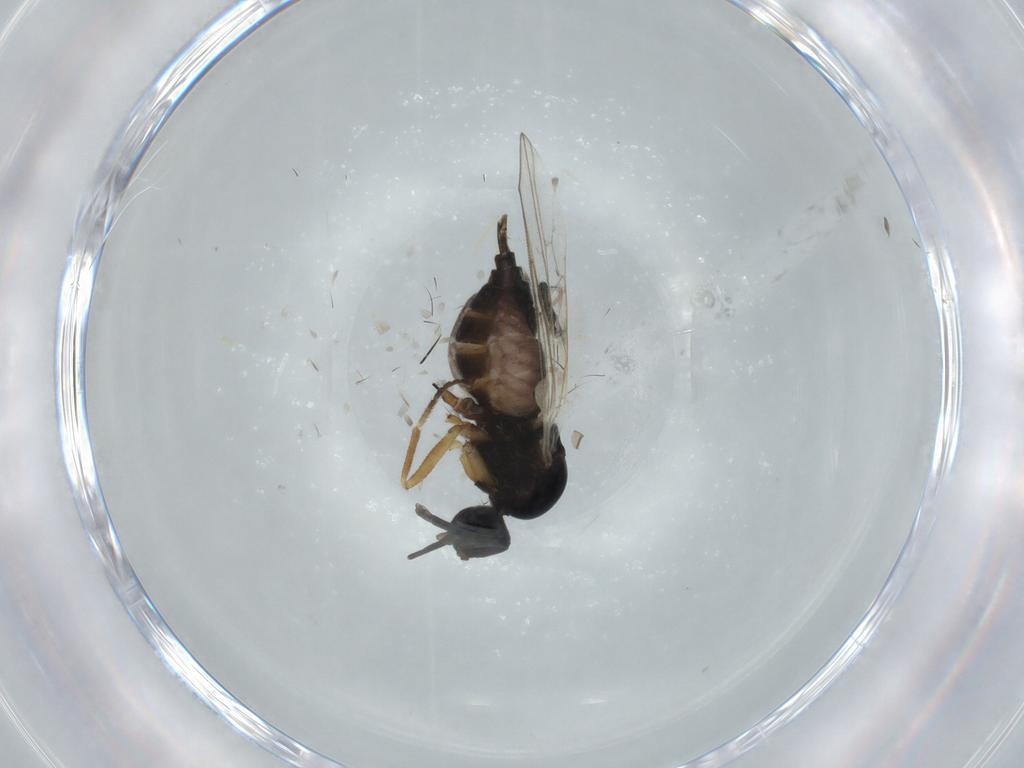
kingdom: Animalia
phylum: Arthropoda
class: Insecta
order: Diptera
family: Hybotidae
